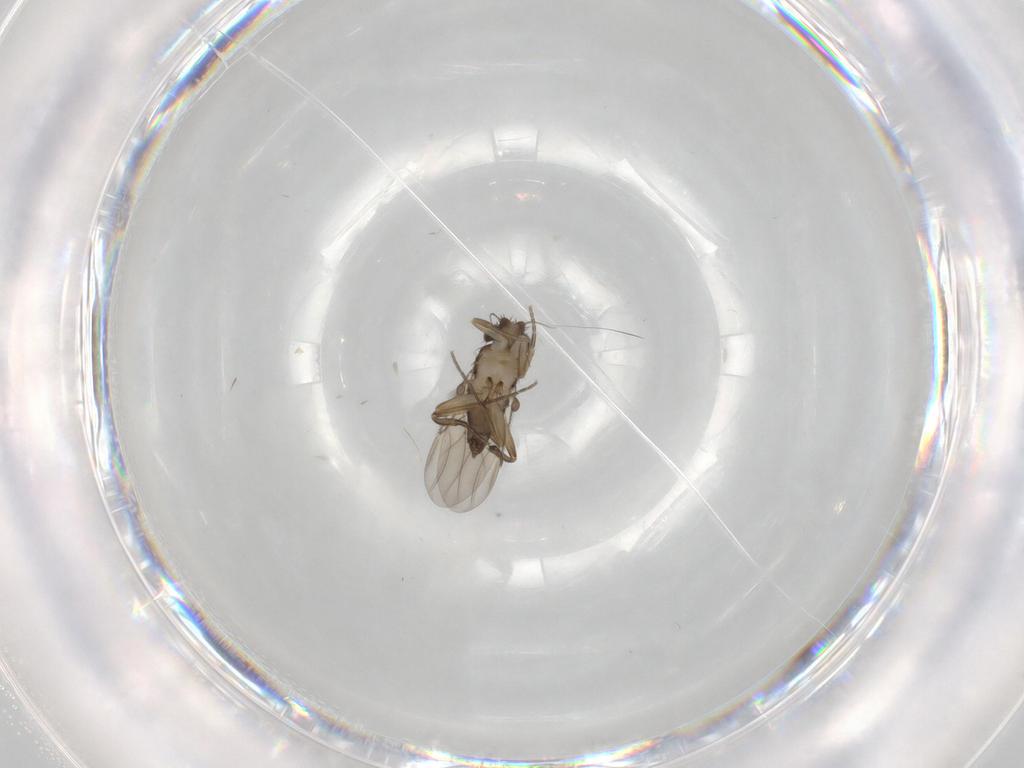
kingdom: Animalia
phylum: Arthropoda
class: Insecta
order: Diptera
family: Phoridae
